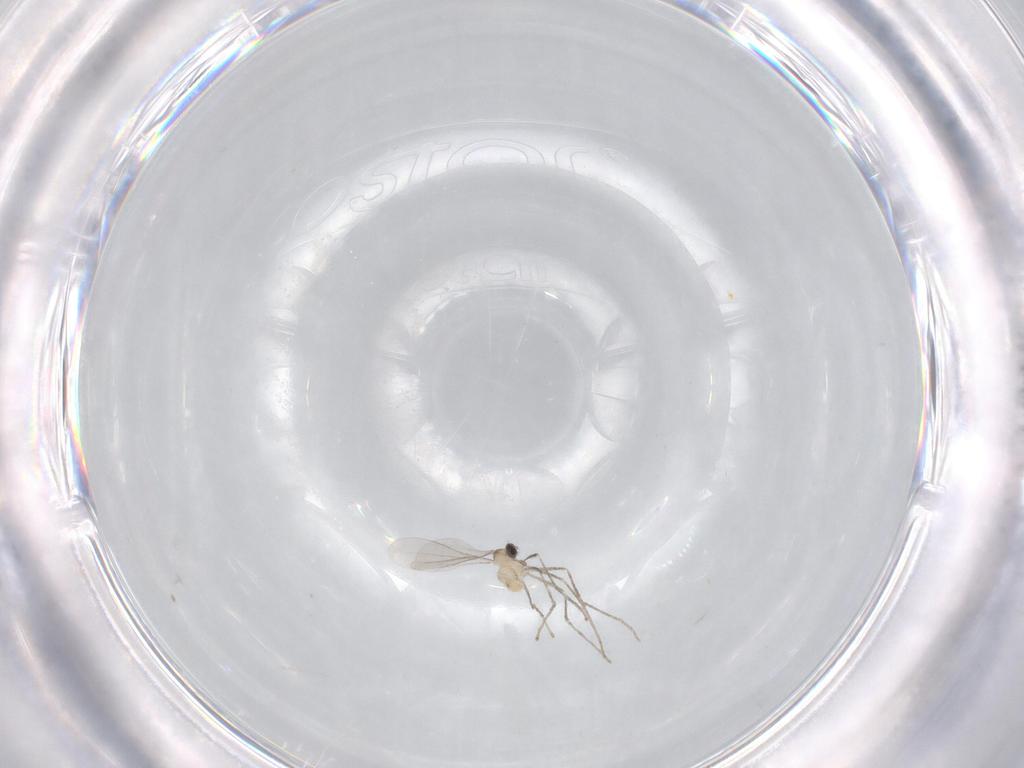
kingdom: Animalia
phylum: Arthropoda
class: Insecta
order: Diptera
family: Cecidomyiidae
